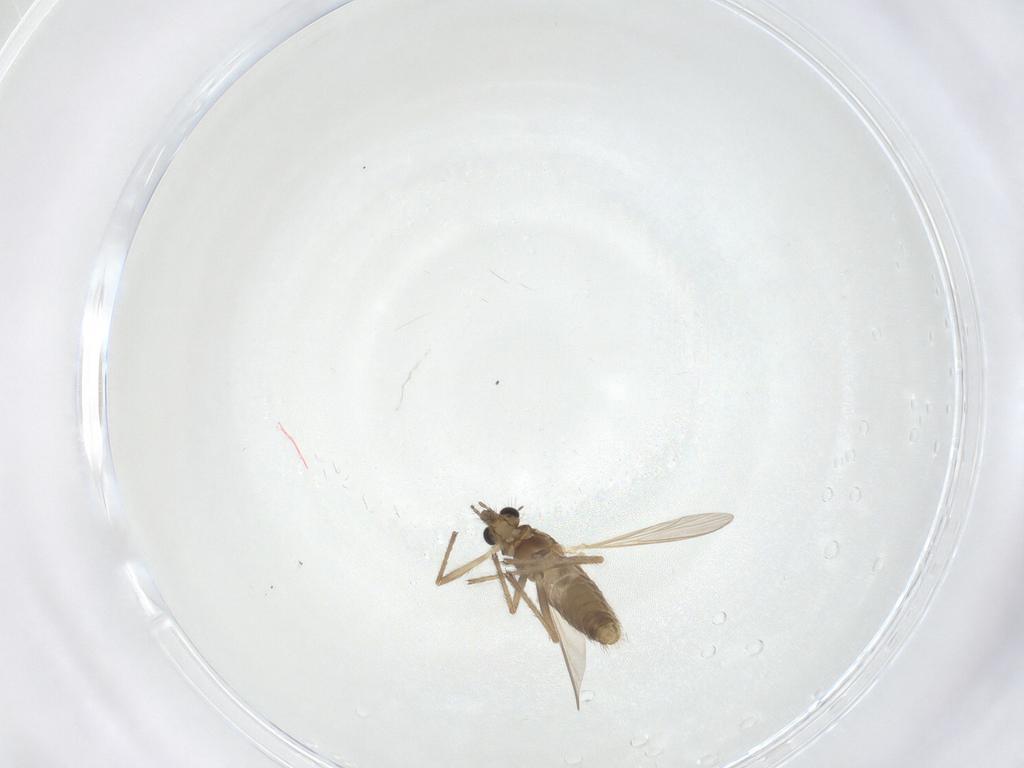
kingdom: Animalia
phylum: Arthropoda
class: Insecta
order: Diptera
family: Chironomidae
